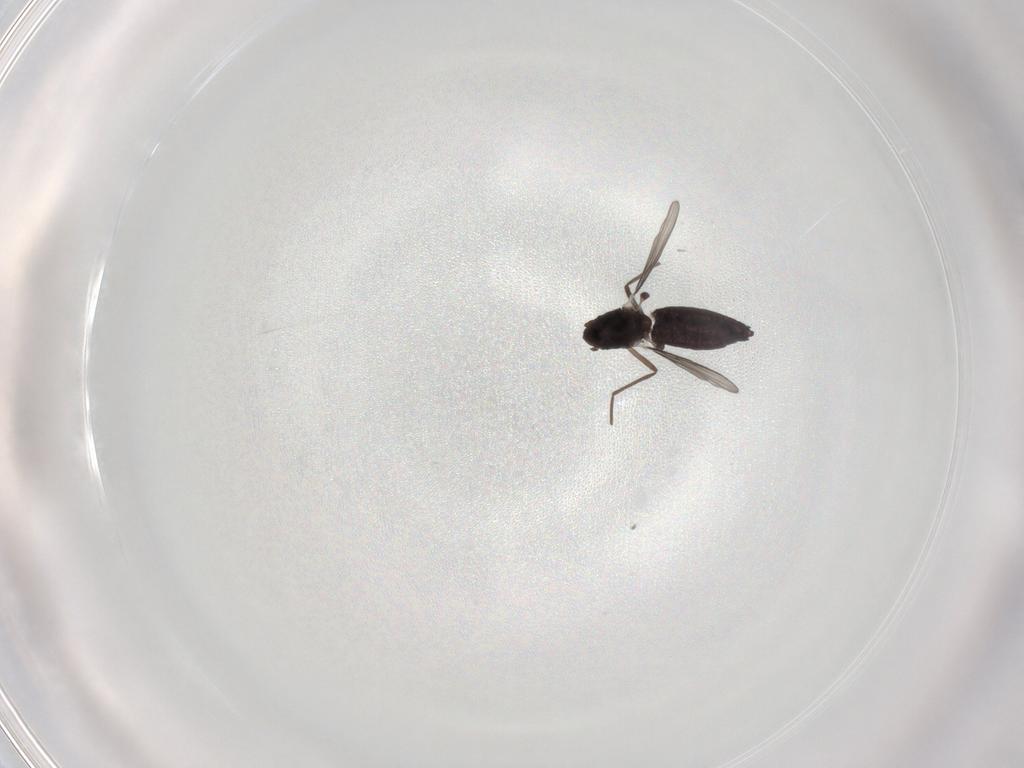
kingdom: Animalia
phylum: Arthropoda
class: Insecta
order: Diptera
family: Chironomidae
